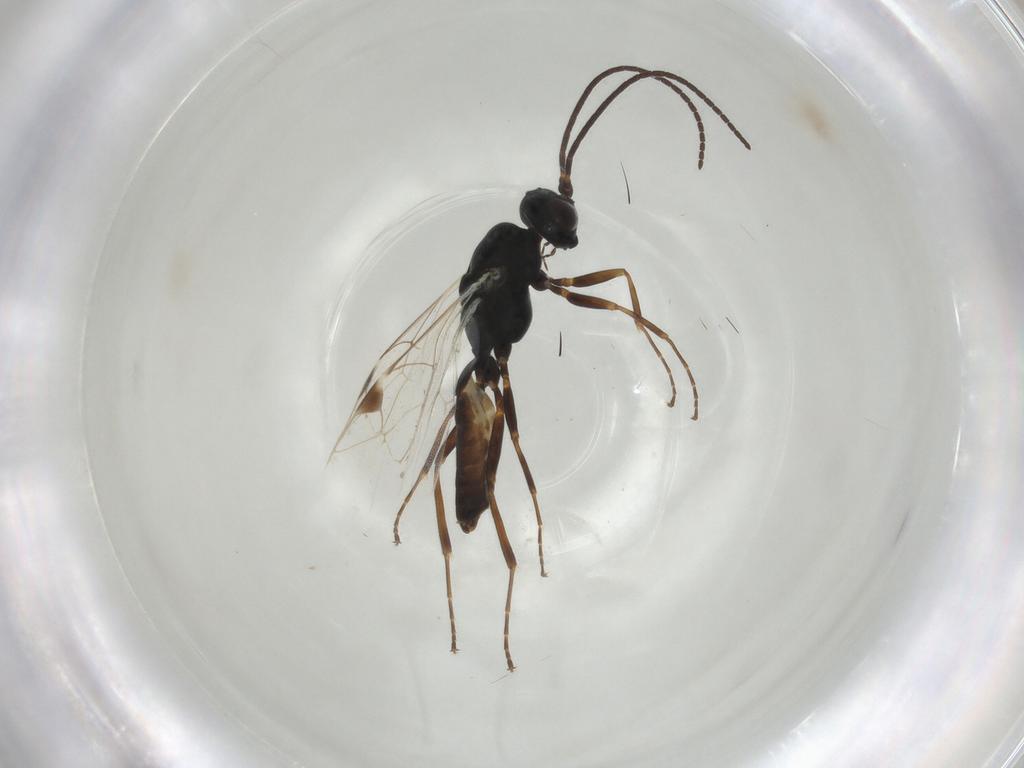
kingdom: Animalia
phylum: Arthropoda
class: Insecta
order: Hymenoptera
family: Ichneumonidae
